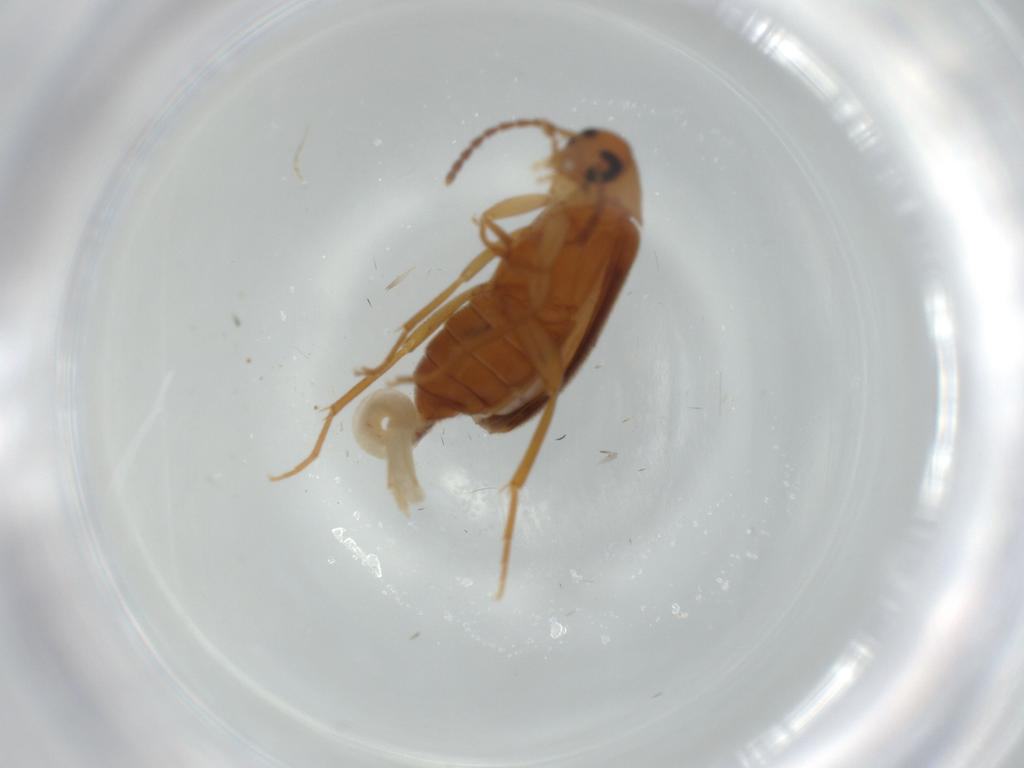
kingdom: Animalia
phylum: Arthropoda
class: Insecta
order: Coleoptera
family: Scraptiidae
